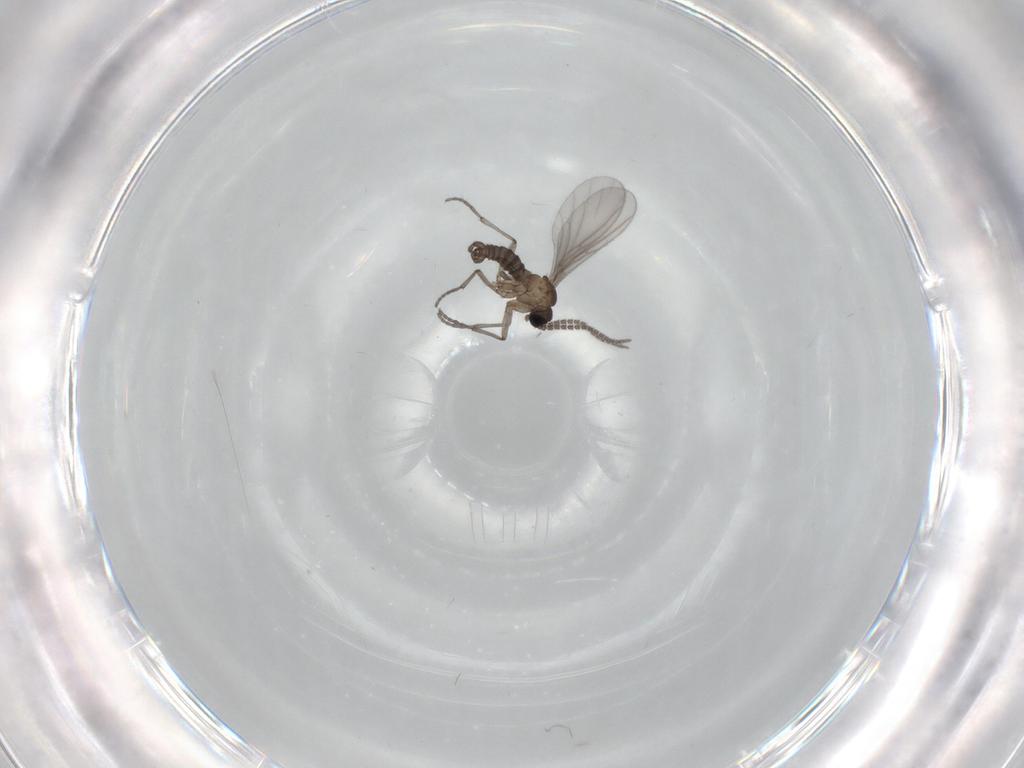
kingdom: Animalia
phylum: Arthropoda
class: Insecta
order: Diptera
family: Sciaridae
